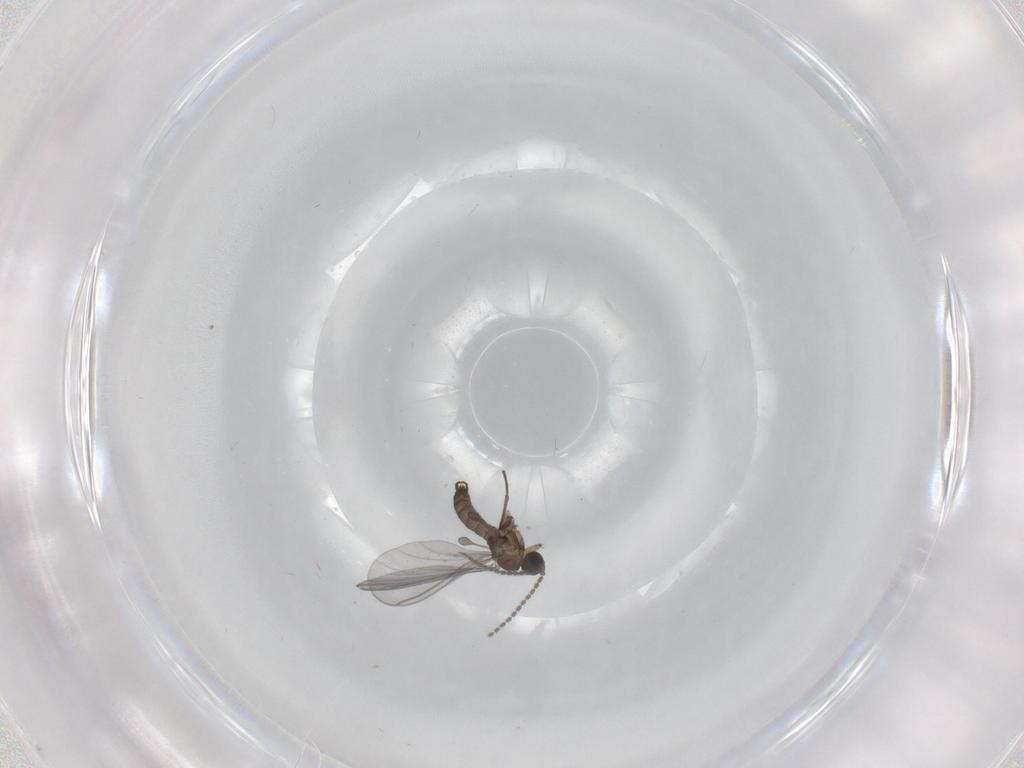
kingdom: Animalia
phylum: Arthropoda
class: Insecta
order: Diptera
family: Sciaridae
